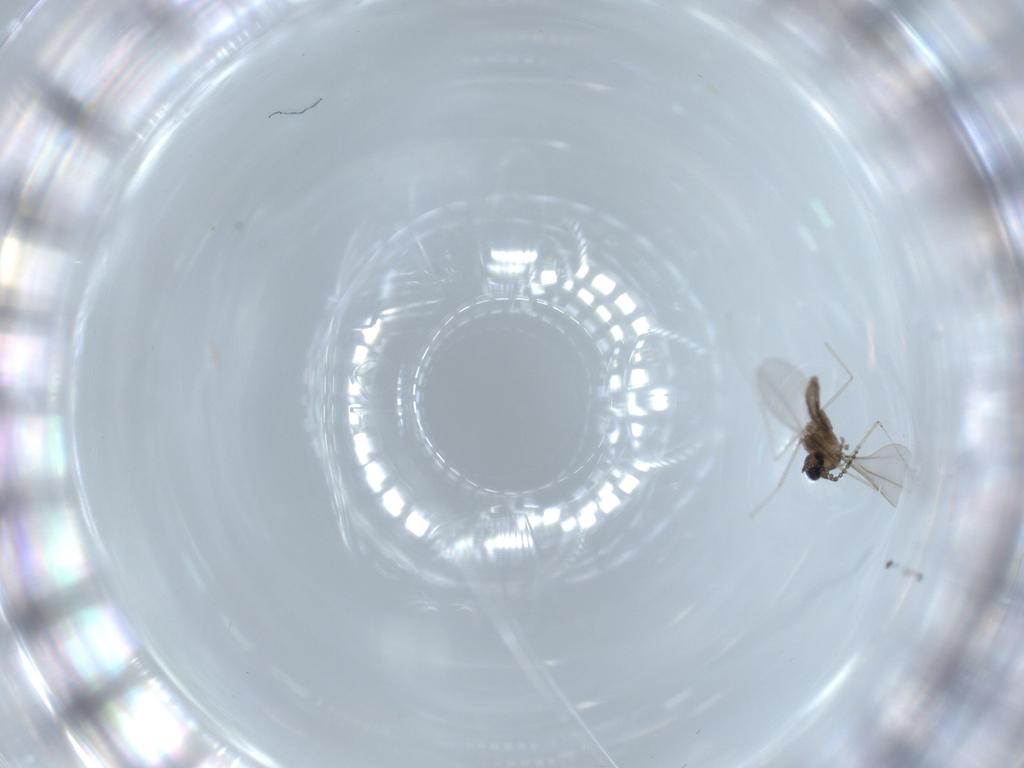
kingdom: Animalia
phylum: Arthropoda
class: Insecta
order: Diptera
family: Cecidomyiidae
